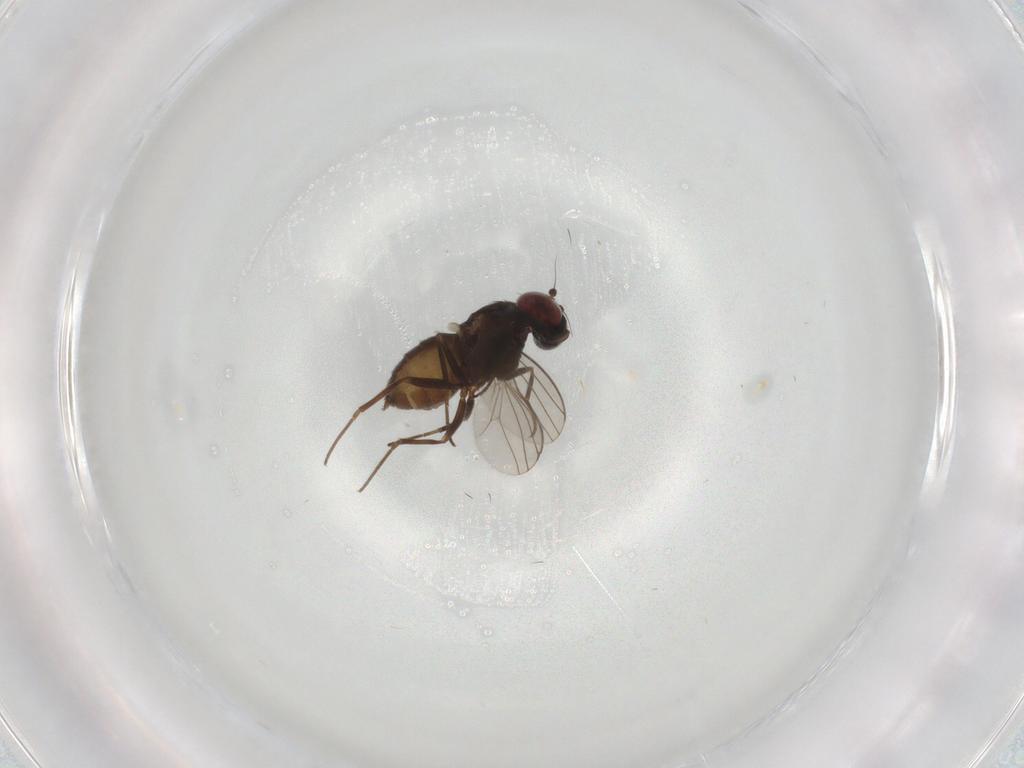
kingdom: Animalia
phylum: Arthropoda
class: Insecta
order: Diptera
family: Dolichopodidae
